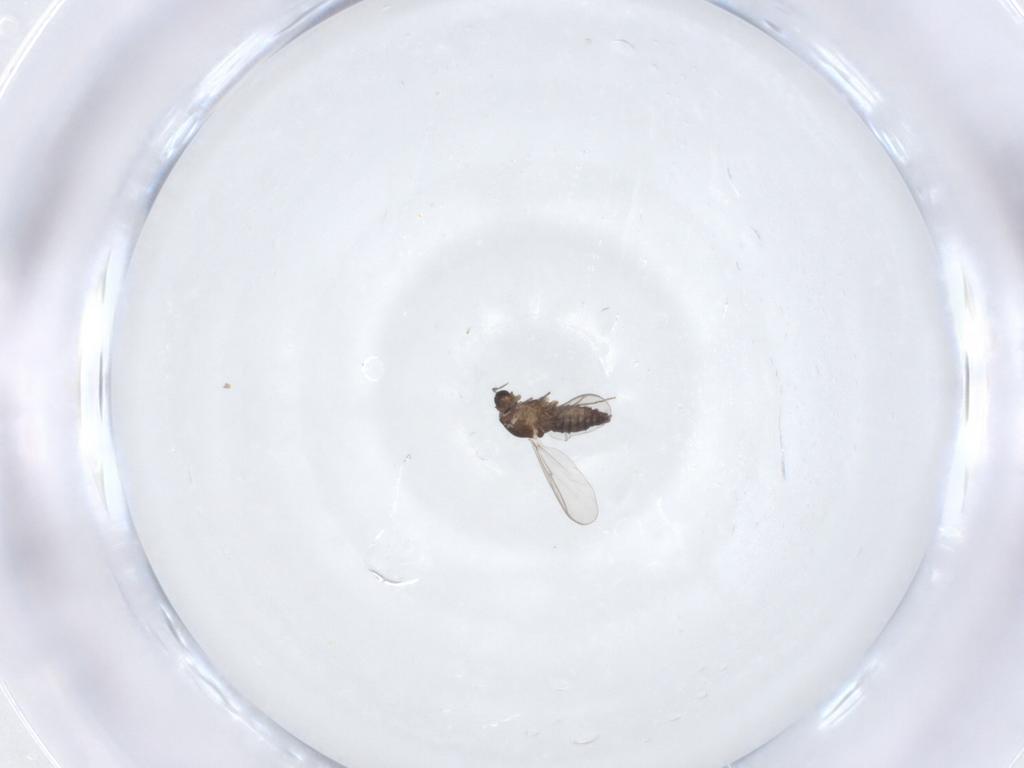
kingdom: Animalia
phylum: Arthropoda
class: Insecta
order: Diptera
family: Chironomidae
